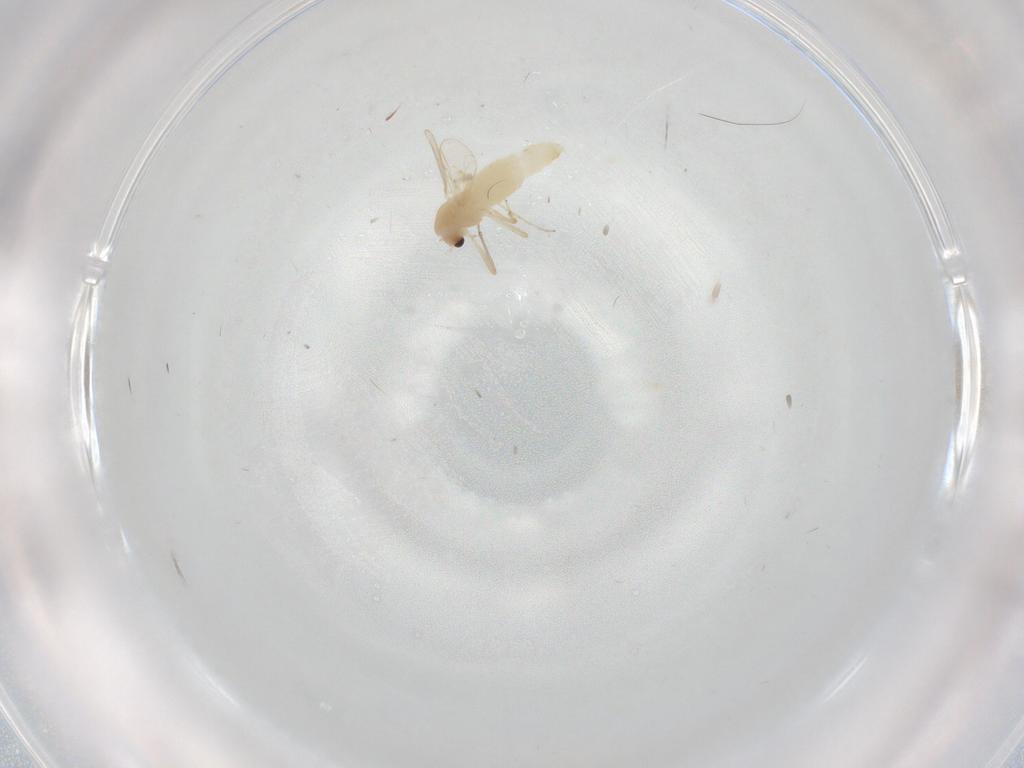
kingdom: Animalia
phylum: Arthropoda
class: Insecta
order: Diptera
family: Chironomidae
